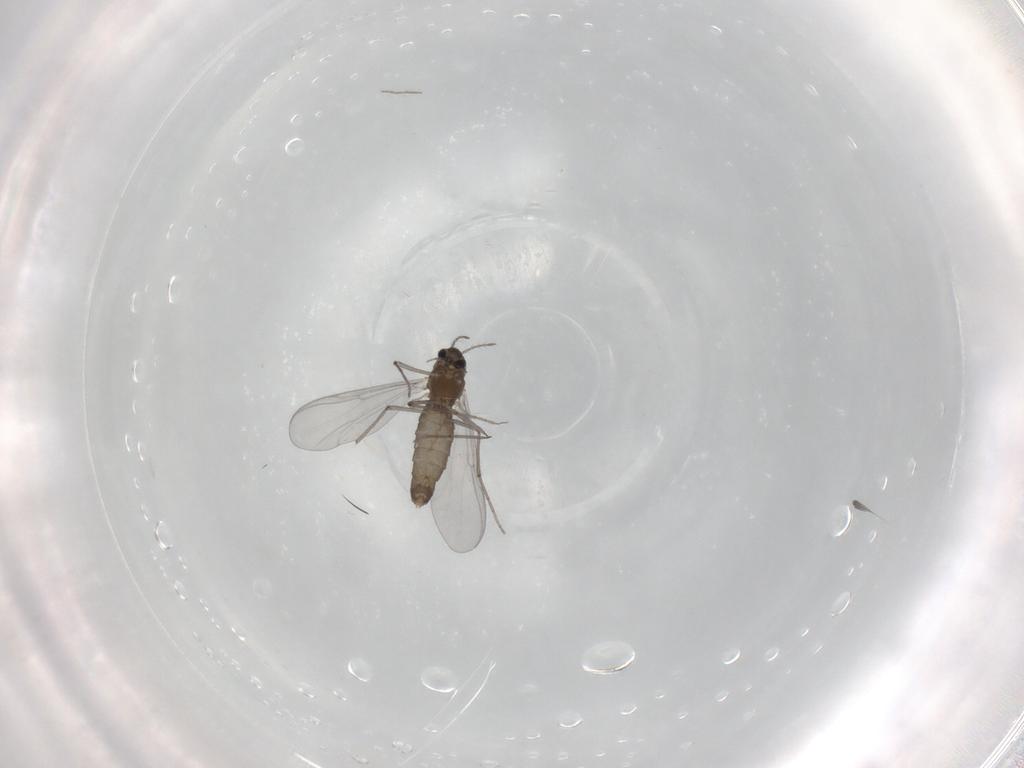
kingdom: Animalia
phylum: Arthropoda
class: Insecta
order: Diptera
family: Chironomidae
